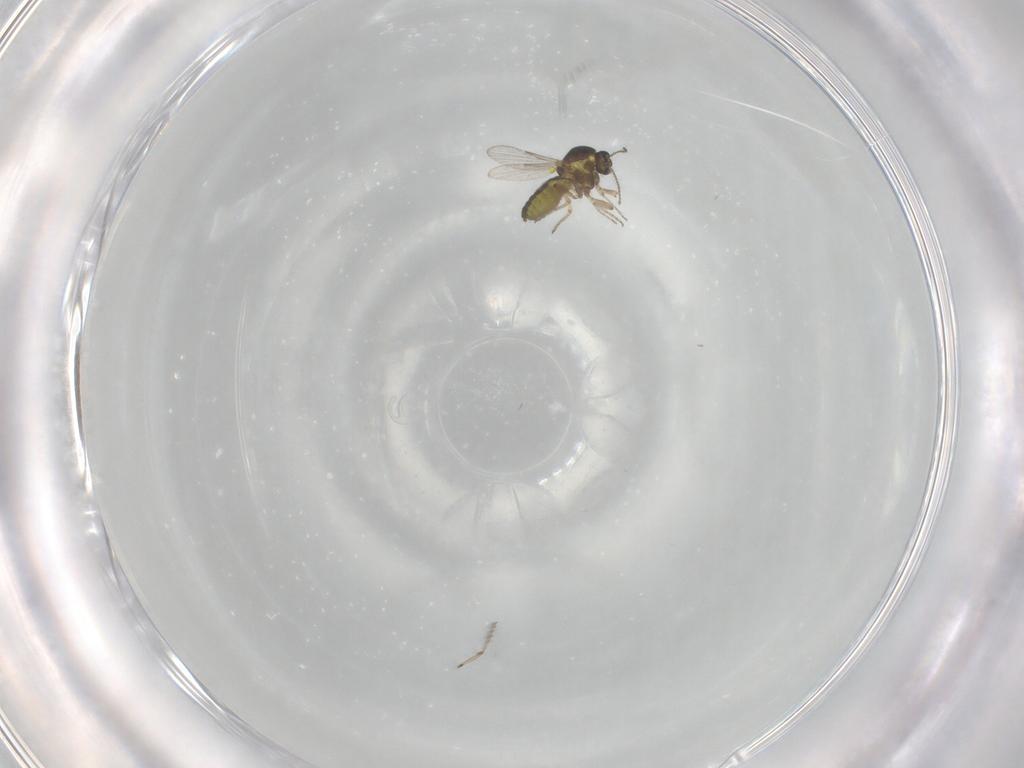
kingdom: Animalia
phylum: Arthropoda
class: Insecta
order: Diptera
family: Ceratopogonidae
